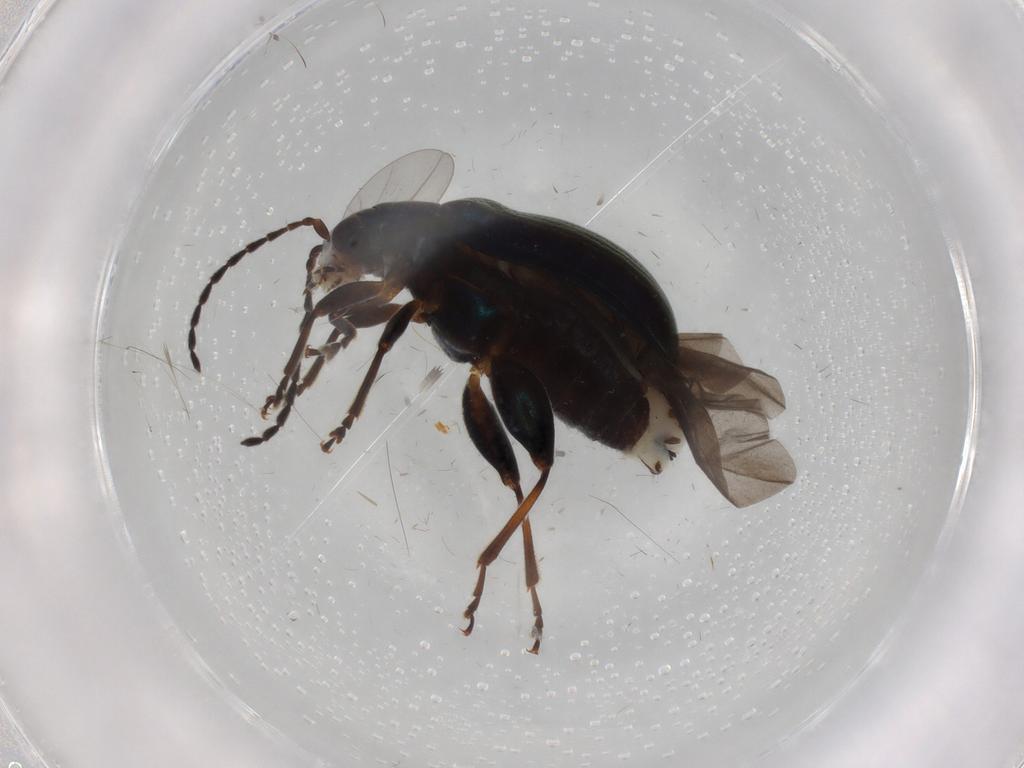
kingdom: Animalia
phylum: Arthropoda
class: Insecta
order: Coleoptera
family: Chrysomelidae
